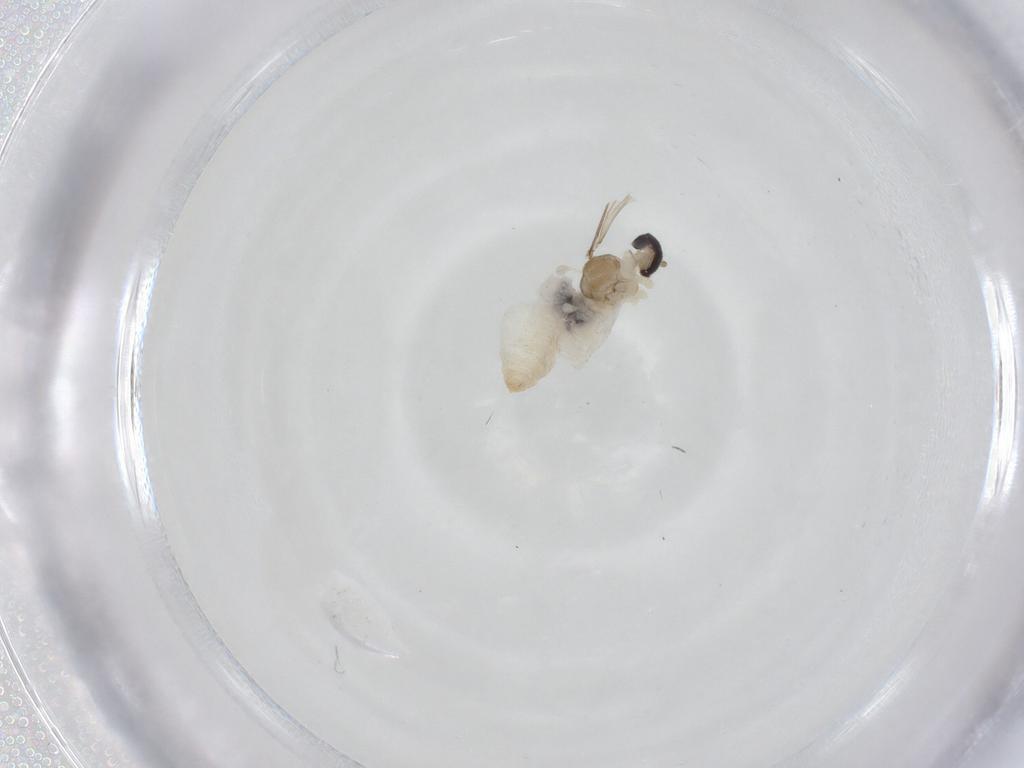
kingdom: Animalia
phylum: Arthropoda
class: Insecta
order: Diptera
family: Cecidomyiidae
